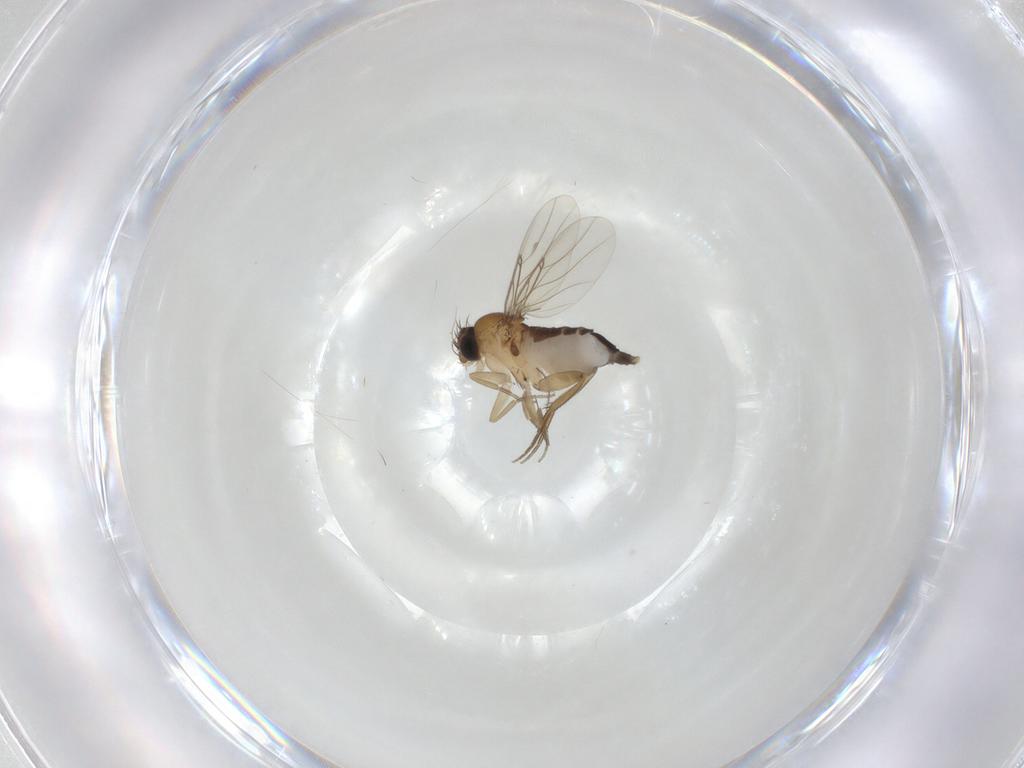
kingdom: Animalia
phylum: Arthropoda
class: Insecta
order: Diptera
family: Phoridae
